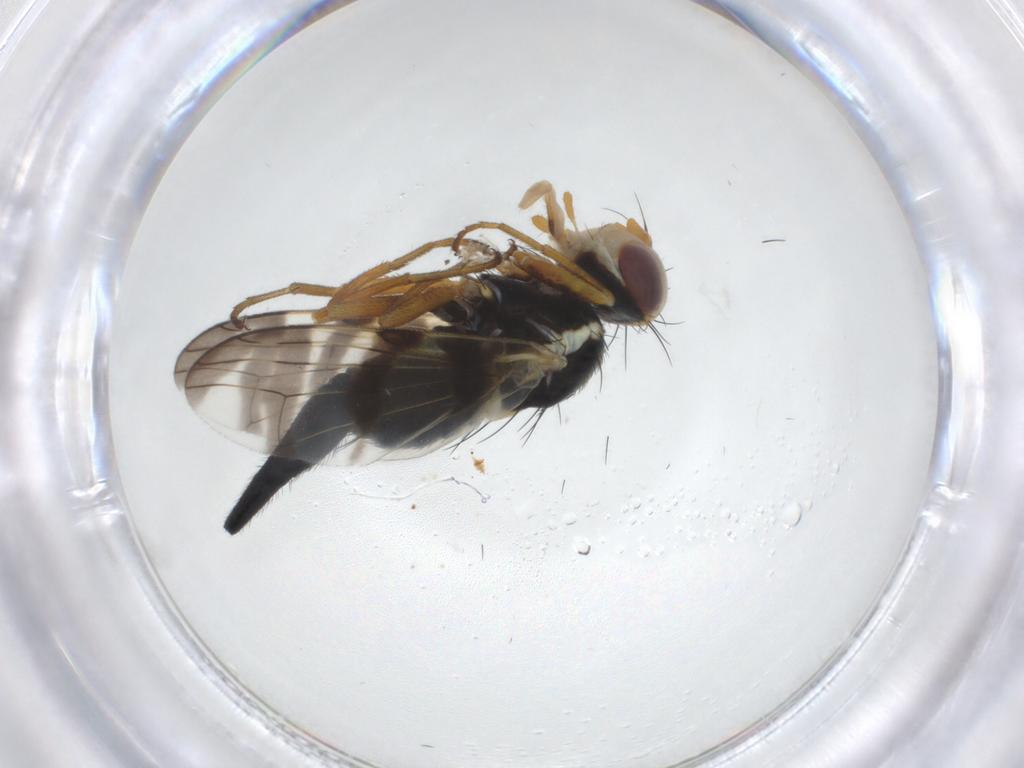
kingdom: Animalia
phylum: Arthropoda
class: Insecta
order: Diptera
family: Tephritidae
